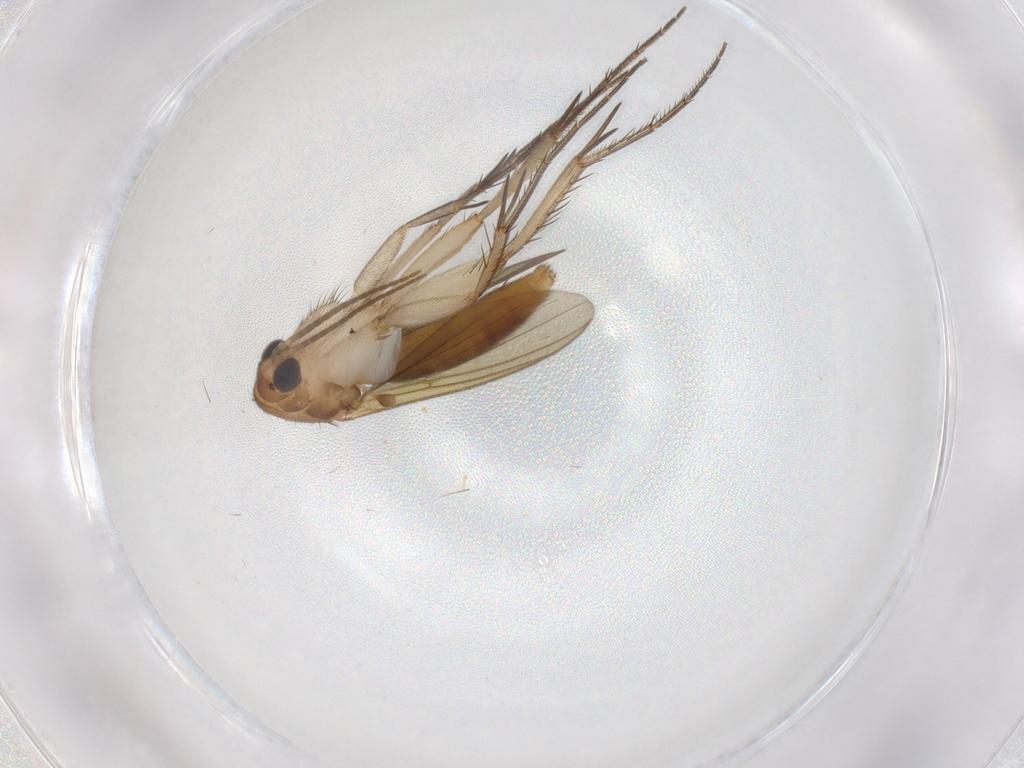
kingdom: Animalia
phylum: Arthropoda
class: Insecta
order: Diptera
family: Mycetophilidae
